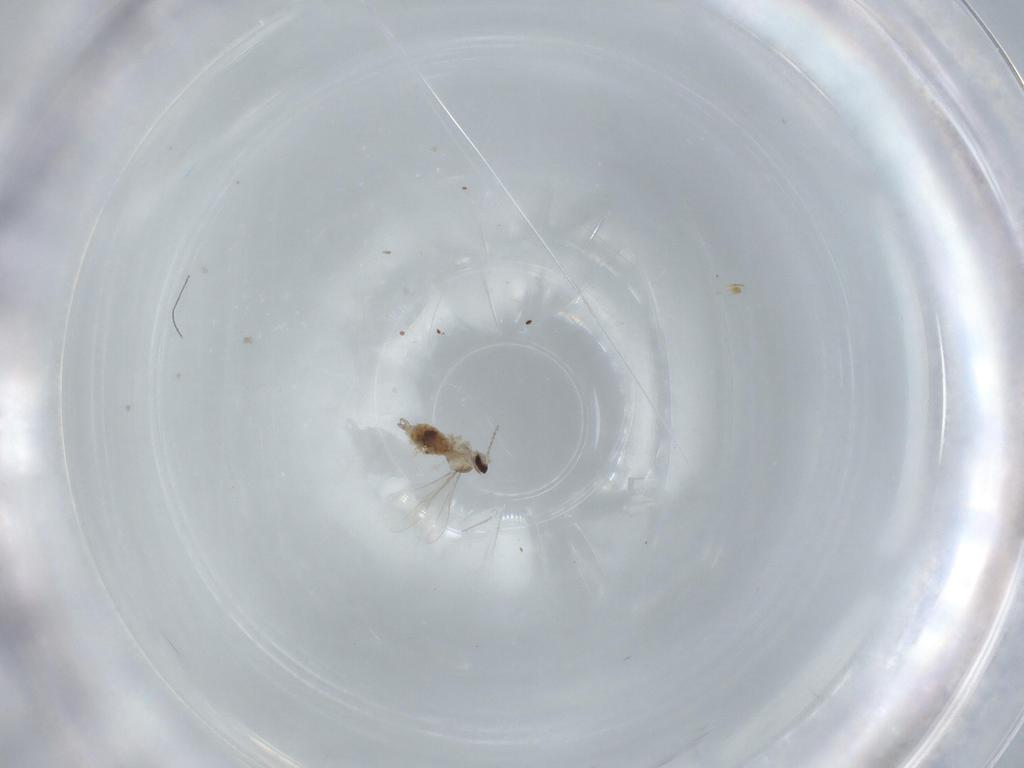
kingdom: Animalia
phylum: Arthropoda
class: Insecta
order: Diptera
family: Cecidomyiidae
